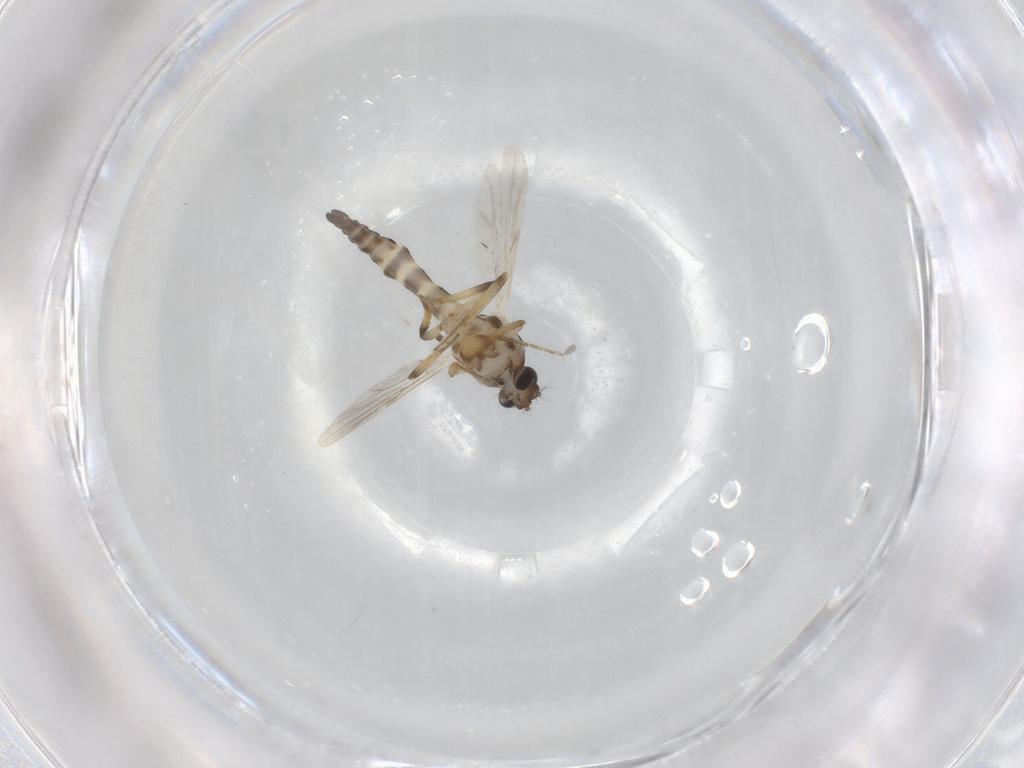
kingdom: Animalia
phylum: Arthropoda
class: Insecta
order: Diptera
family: Ceratopogonidae
